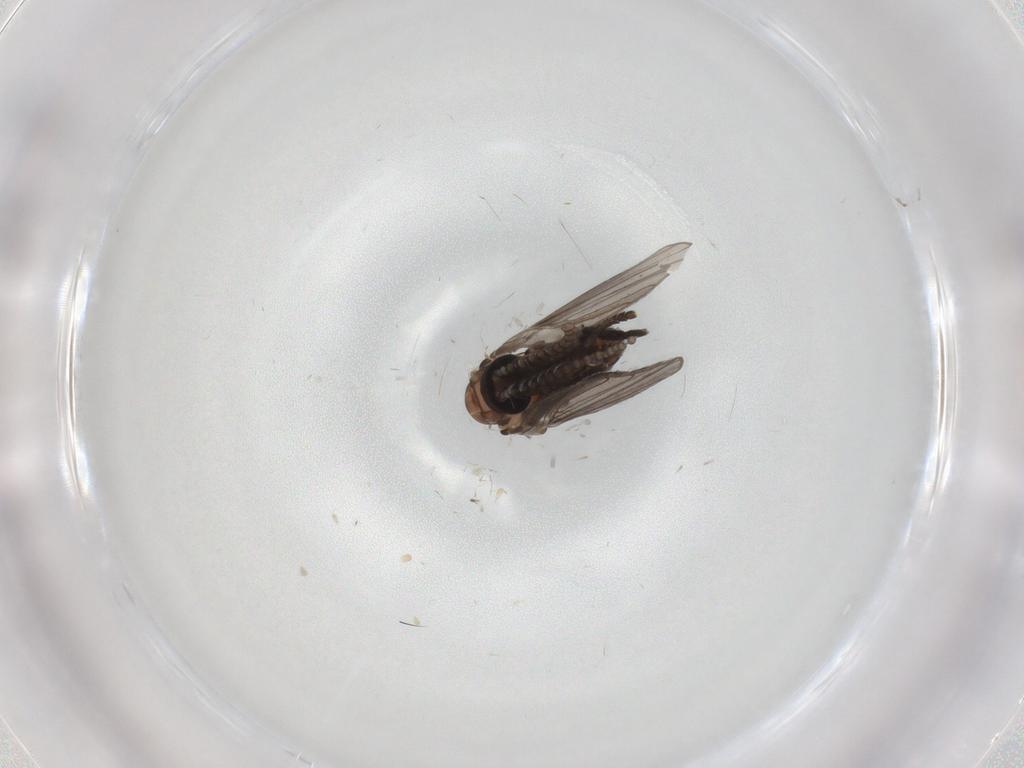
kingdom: Animalia
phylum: Arthropoda
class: Insecta
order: Diptera
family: Psychodidae
